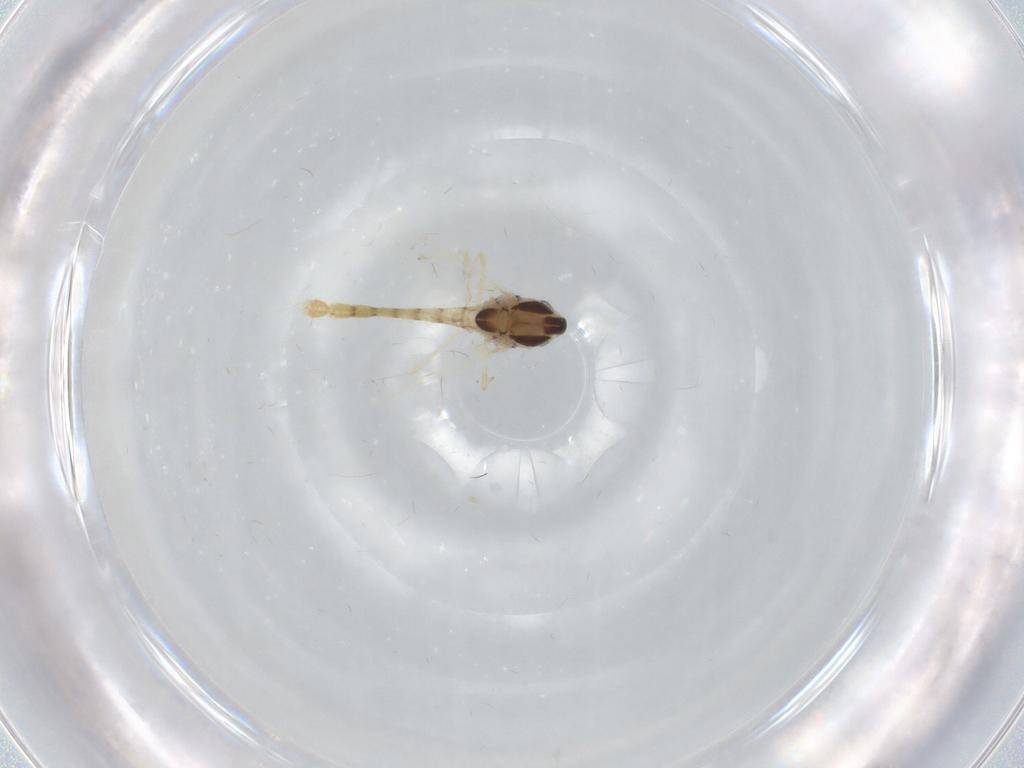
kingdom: Animalia
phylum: Arthropoda
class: Insecta
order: Diptera
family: Chironomidae
